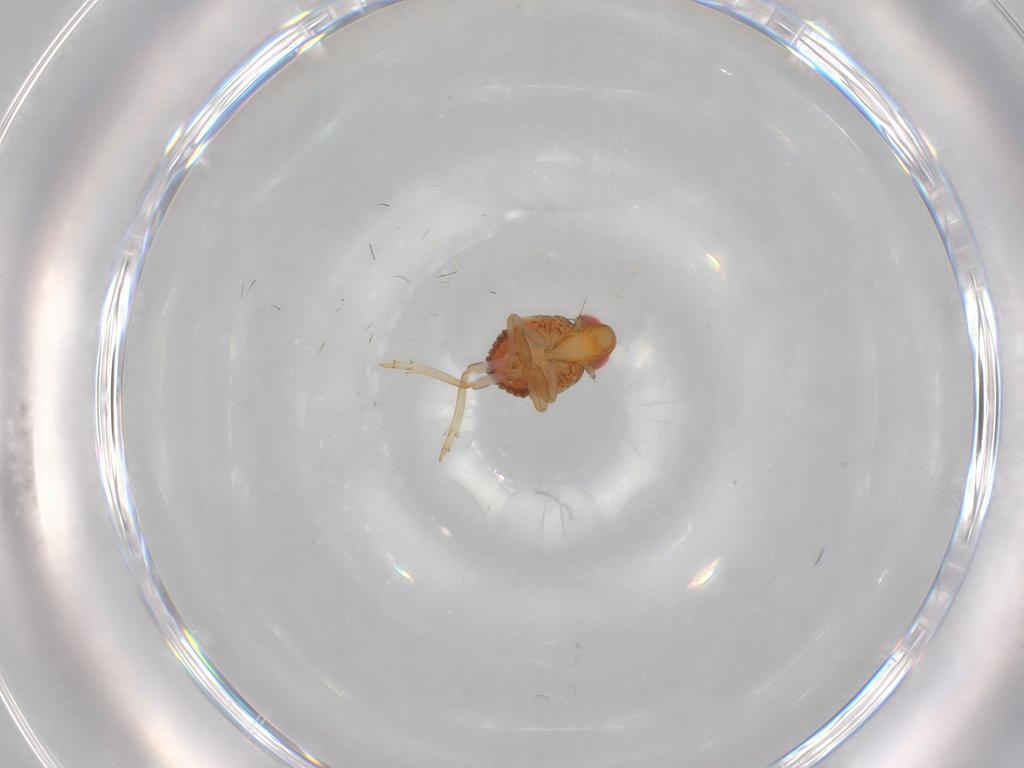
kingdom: Animalia
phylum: Arthropoda
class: Insecta
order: Hemiptera
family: Issidae
